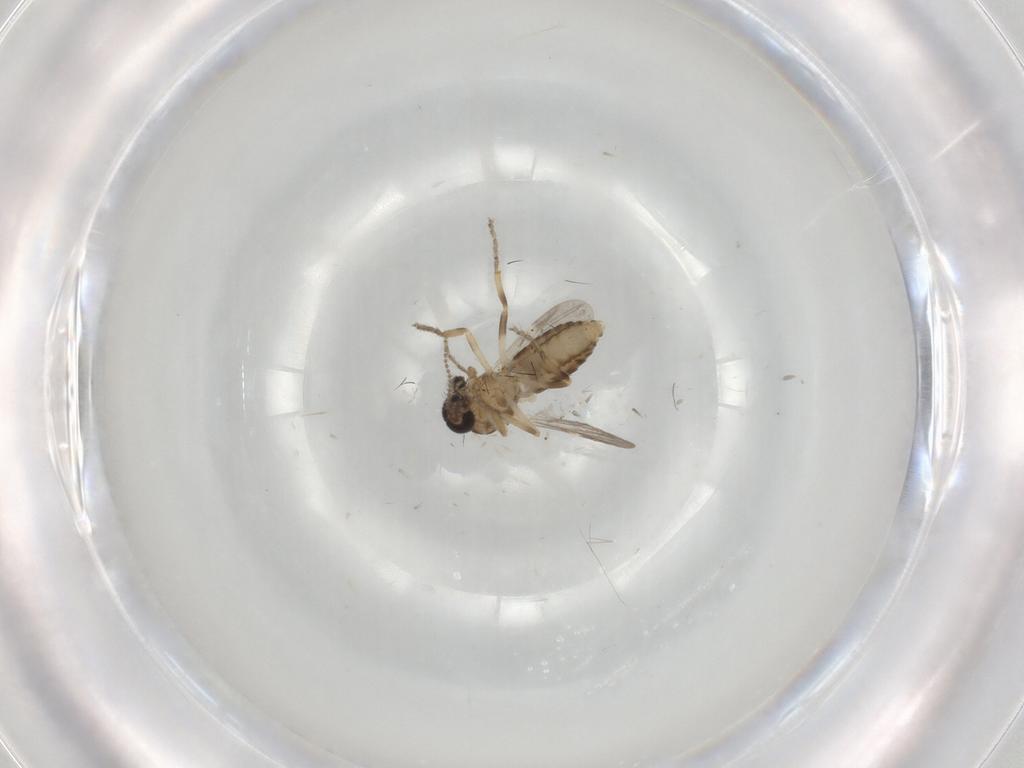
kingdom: Animalia
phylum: Arthropoda
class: Insecta
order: Diptera
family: Ceratopogonidae
